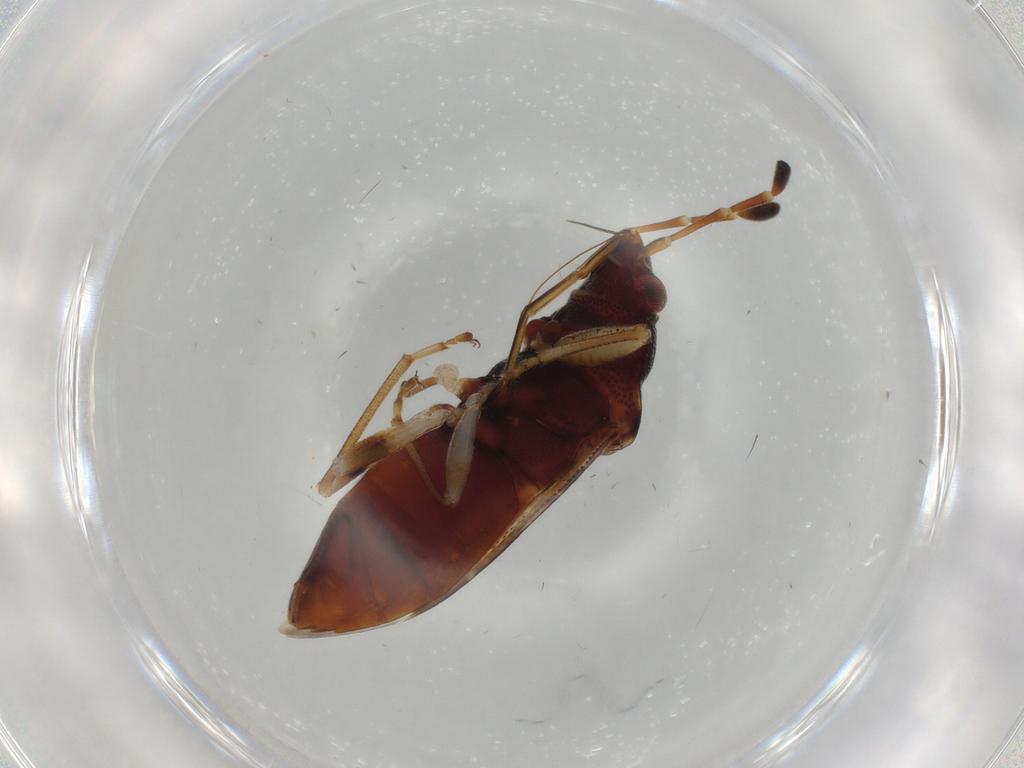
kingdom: Animalia
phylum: Arthropoda
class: Insecta
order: Hemiptera
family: Rhyparochromidae
